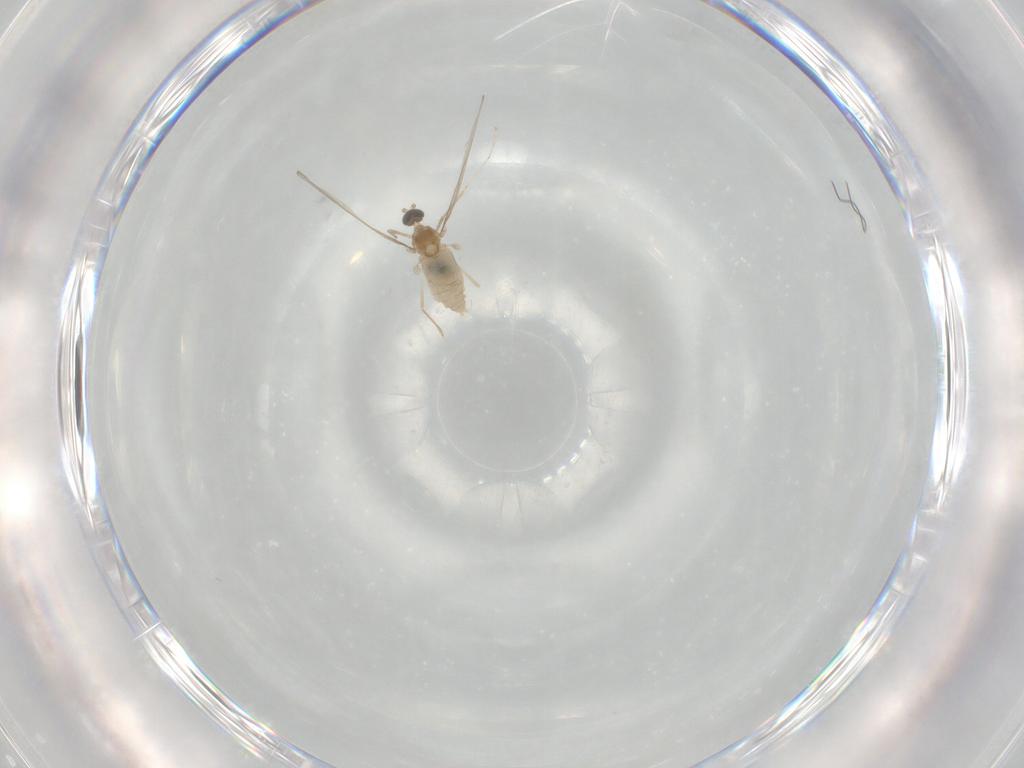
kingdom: Animalia
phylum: Arthropoda
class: Insecta
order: Diptera
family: Cecidomyiidae
